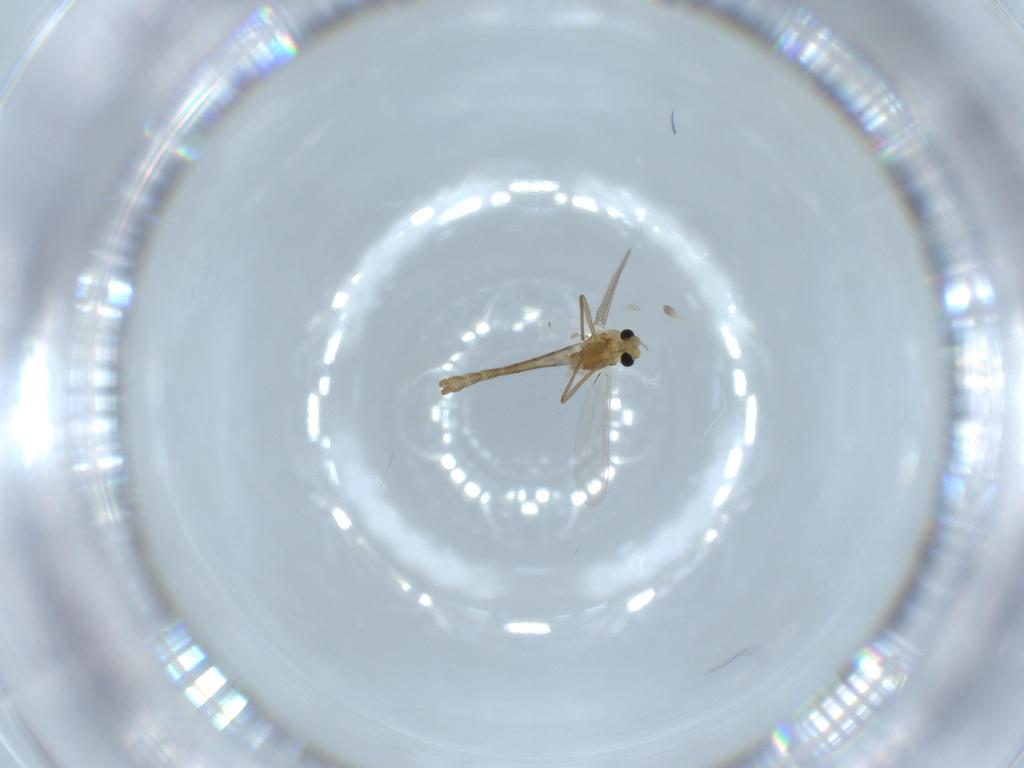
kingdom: Animalia
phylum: Arthropoda
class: Insecta
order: Diptera
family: Chironomidae
